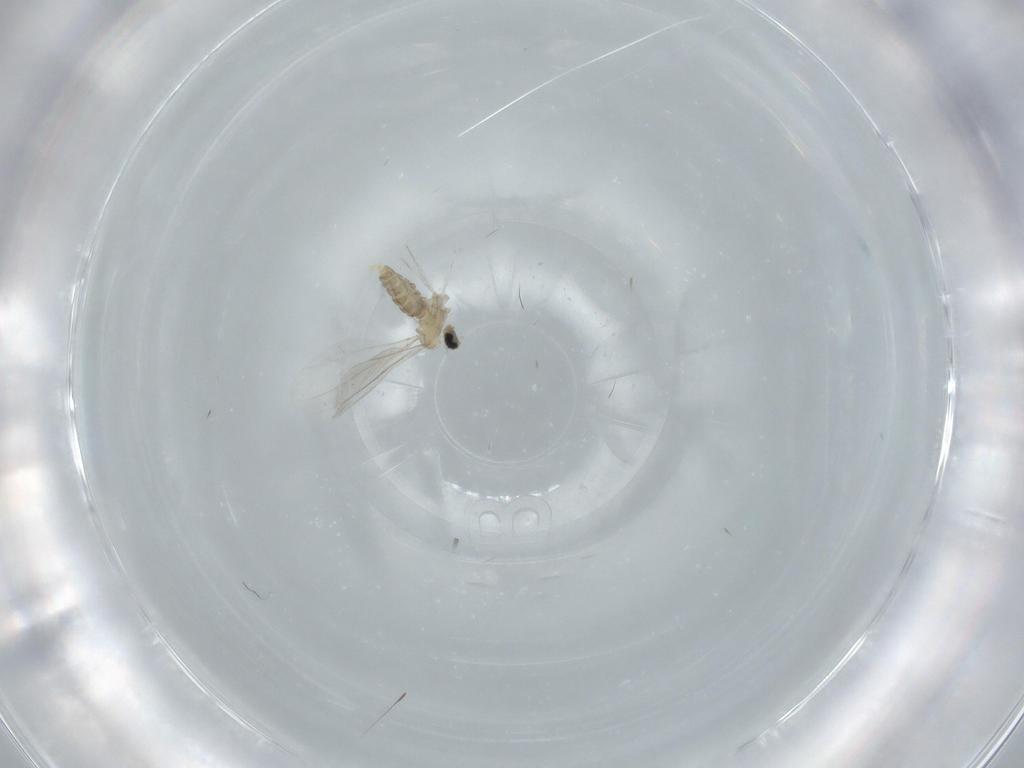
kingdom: Animalia
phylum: Arthropoda
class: Insecta
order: Diptera
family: Cecidomyiidae
